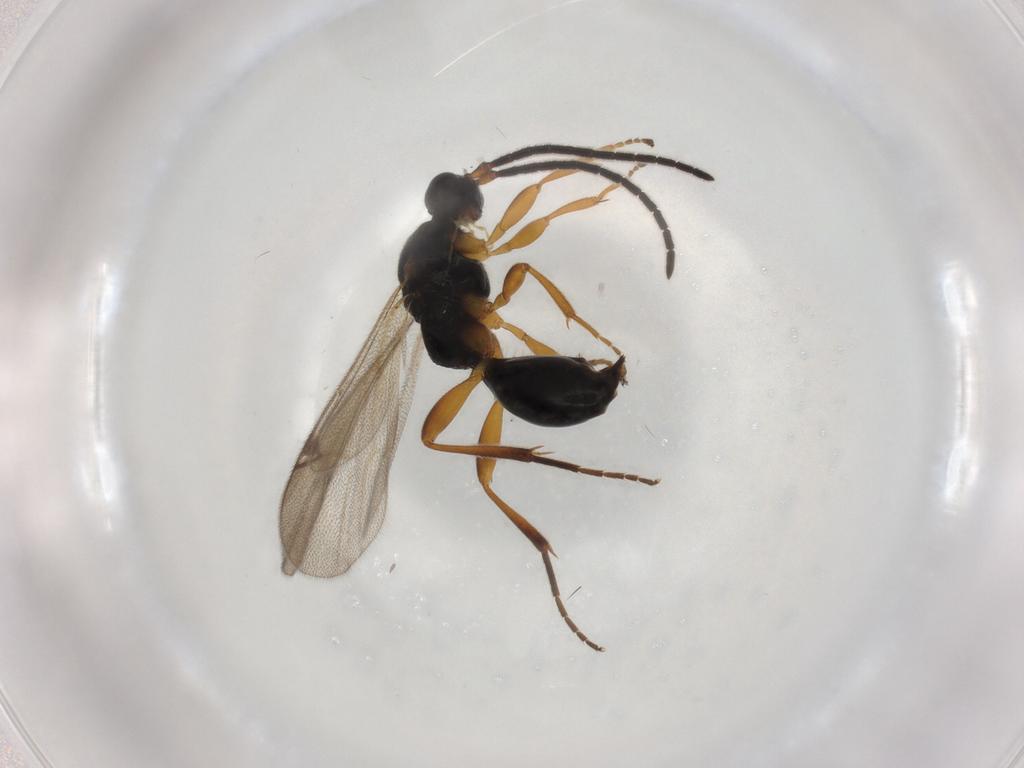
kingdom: Animalia
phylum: Arthropoda
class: Insecta
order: Hymenoptera
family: Proctotrupidae
